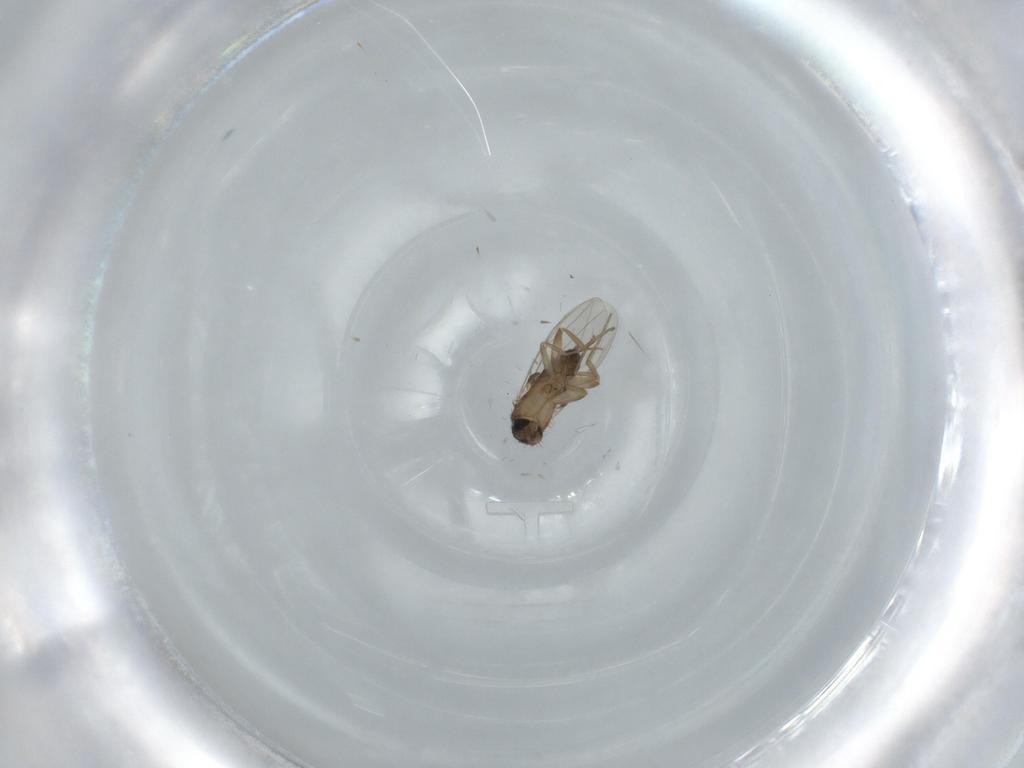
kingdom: Animalia
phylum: Arthropoda
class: Insecta
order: Diptera
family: Phoridae
